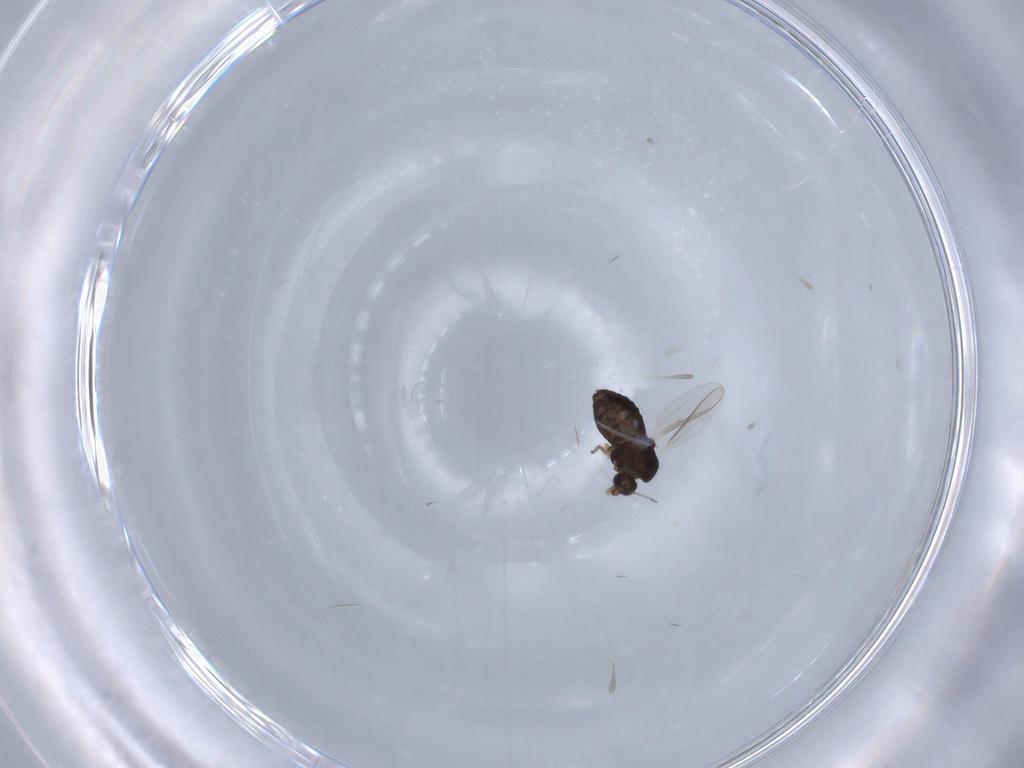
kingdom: Animalia
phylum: Arthropoda
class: Insecta
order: Diptera
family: Chironomidae
